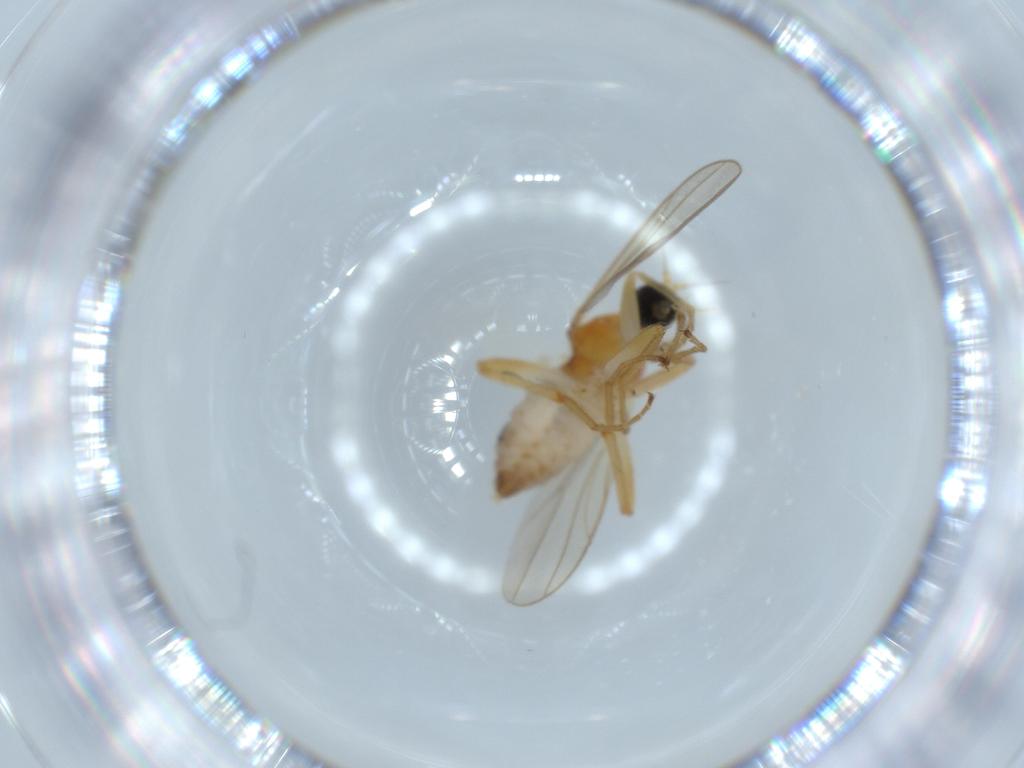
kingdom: Animalia
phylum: Arthropoda
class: Insecta
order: Diptera
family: Hybotidae
